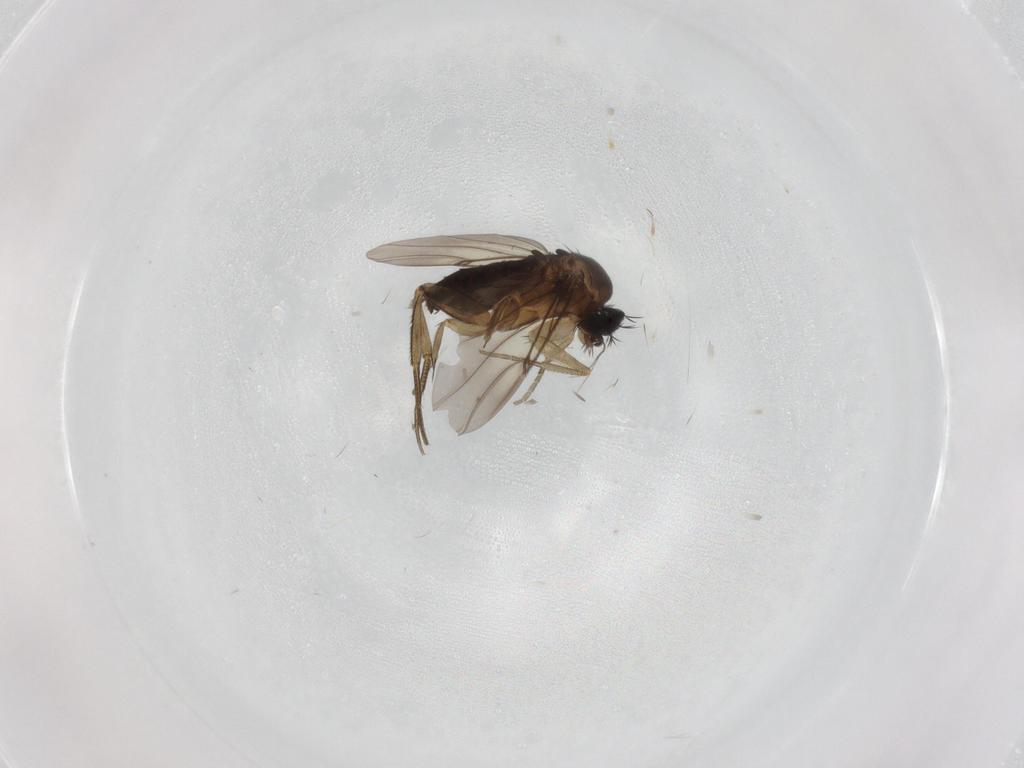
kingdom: Animalia
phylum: Arthropoda
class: Insecta
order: Diptera
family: Phoridae
